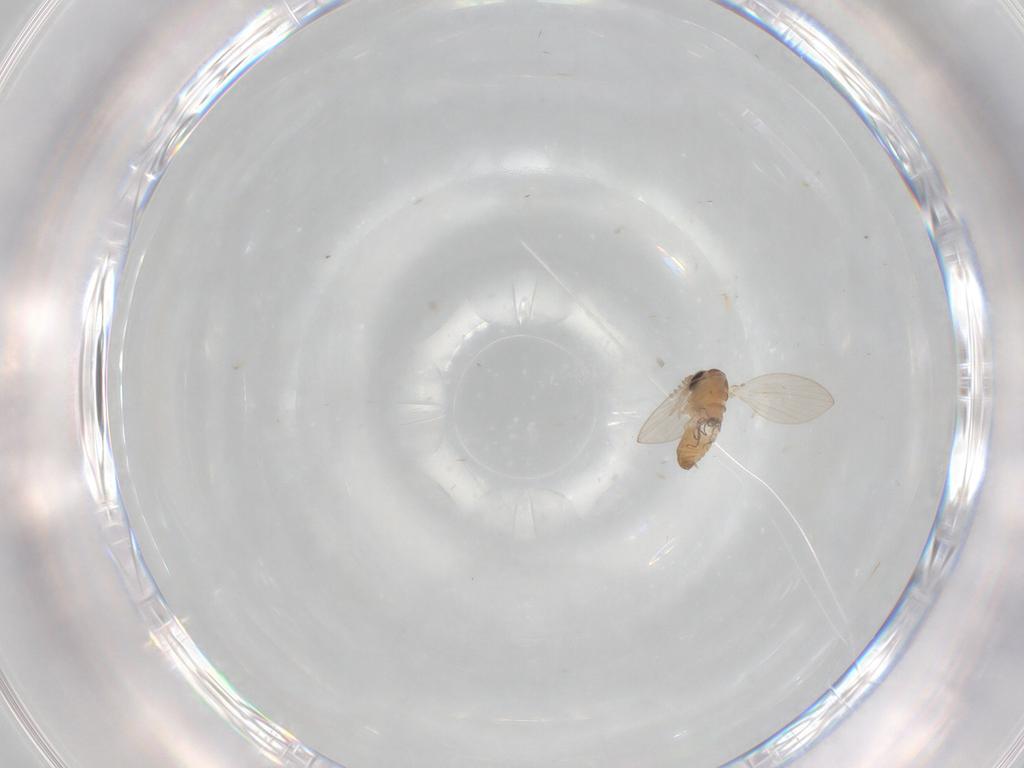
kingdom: Animalia
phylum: Arthropoda
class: Insecta
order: Diptera
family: Psychodidae
